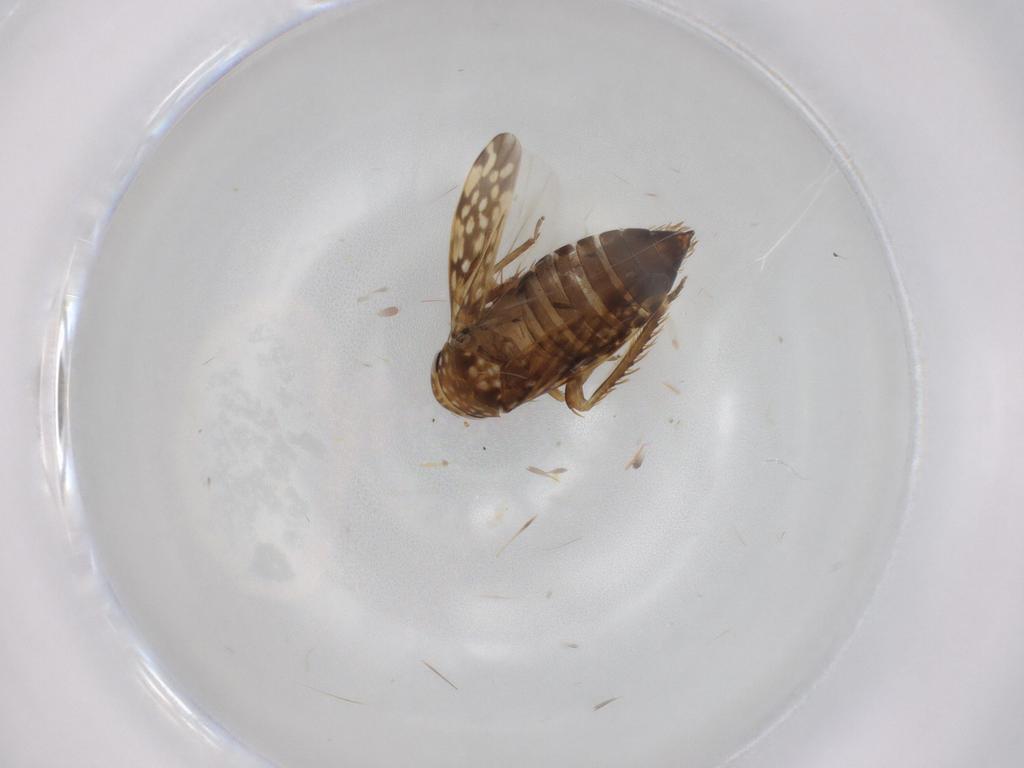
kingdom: Animalia
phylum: Arthropoda
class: Insecta
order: Hemiptera
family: Cicadellidae
